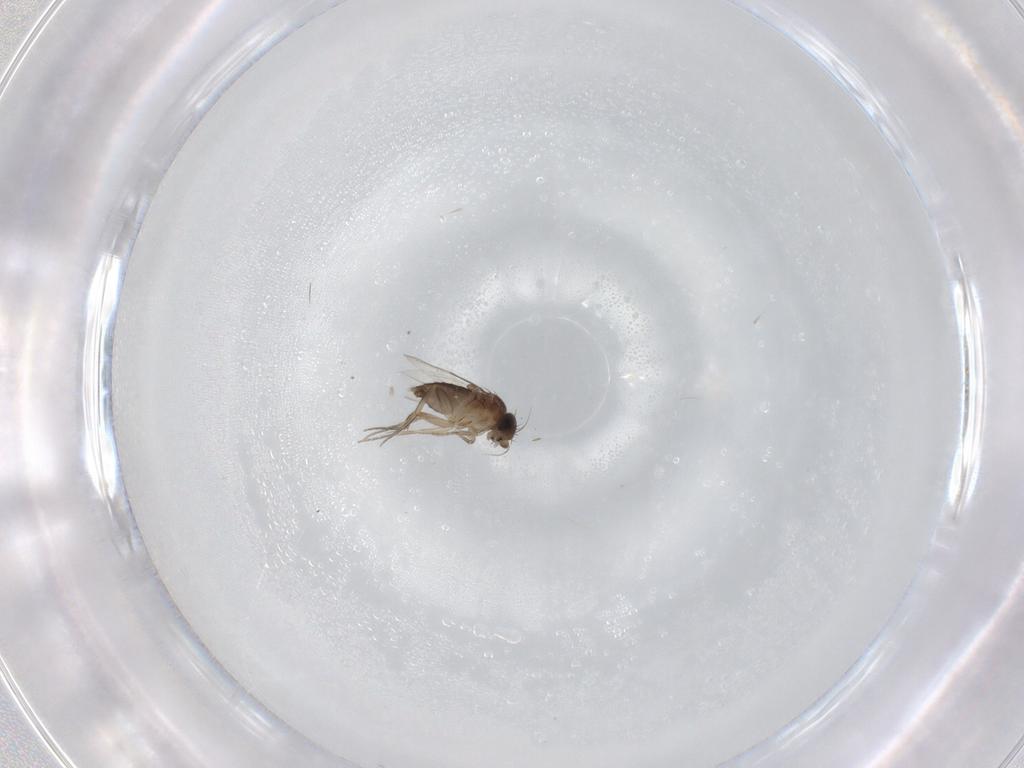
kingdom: Animalia
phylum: Arthropoda
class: Insecta
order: Diptera
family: Phoridae
